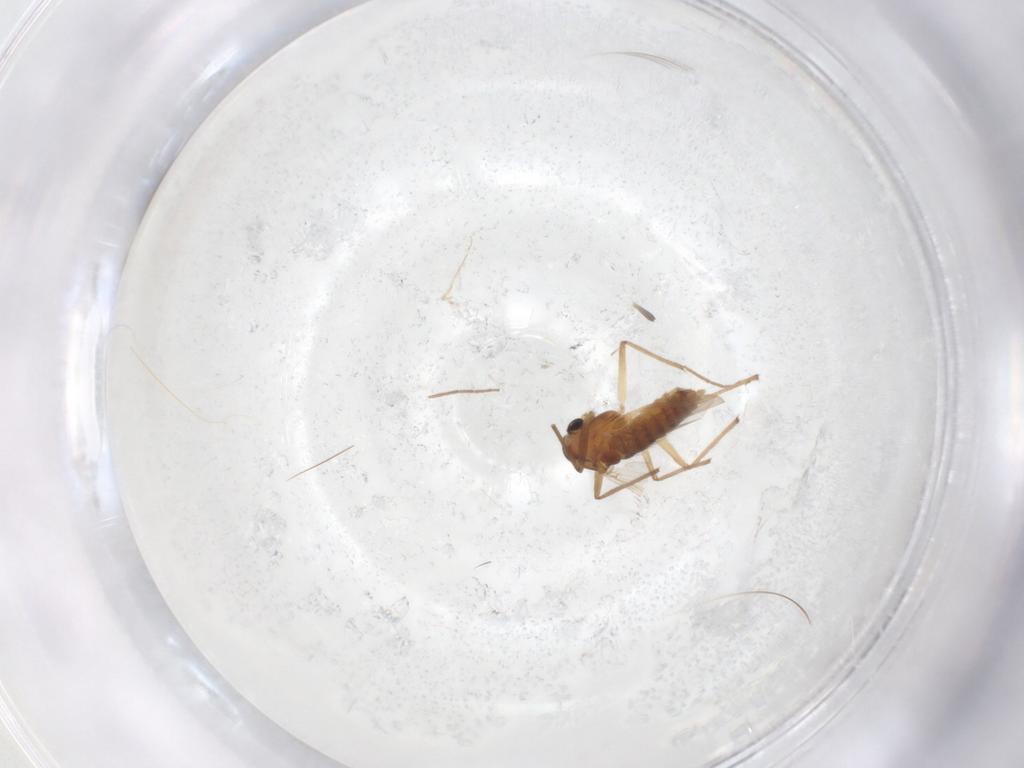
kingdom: Animalia
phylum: Arthropoda
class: Insecta
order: Diptera
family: Chironomidae
